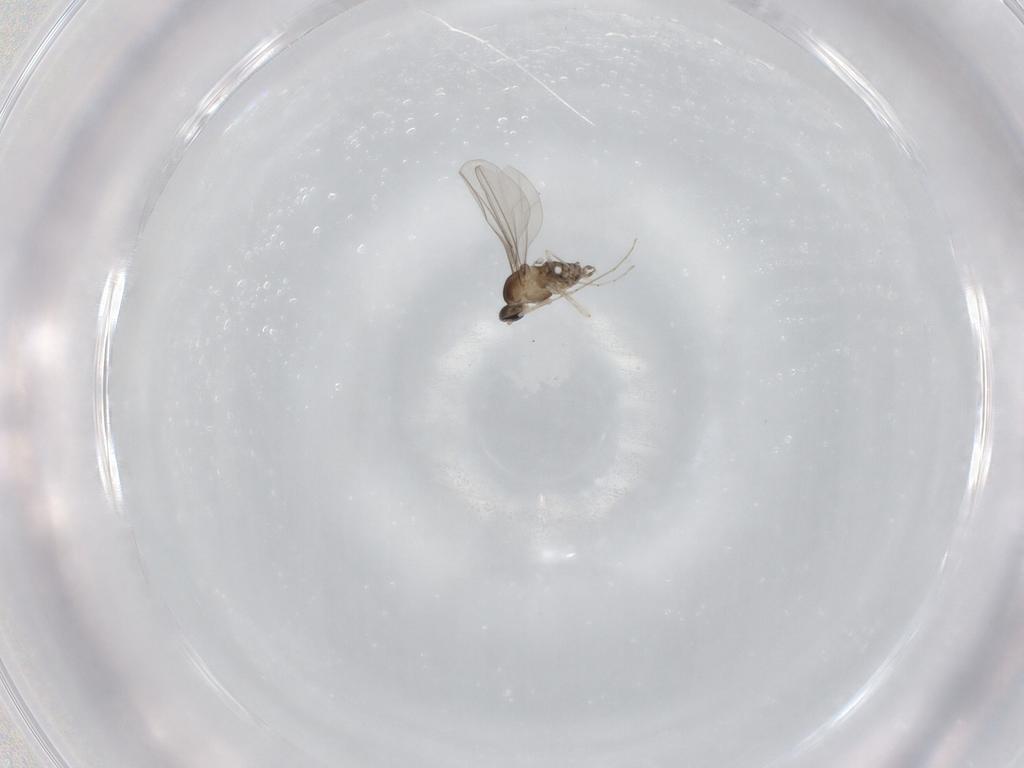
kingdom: Animalia
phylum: Arthropoda
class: Insecta
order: Diptera
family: Cecidomyiidae
